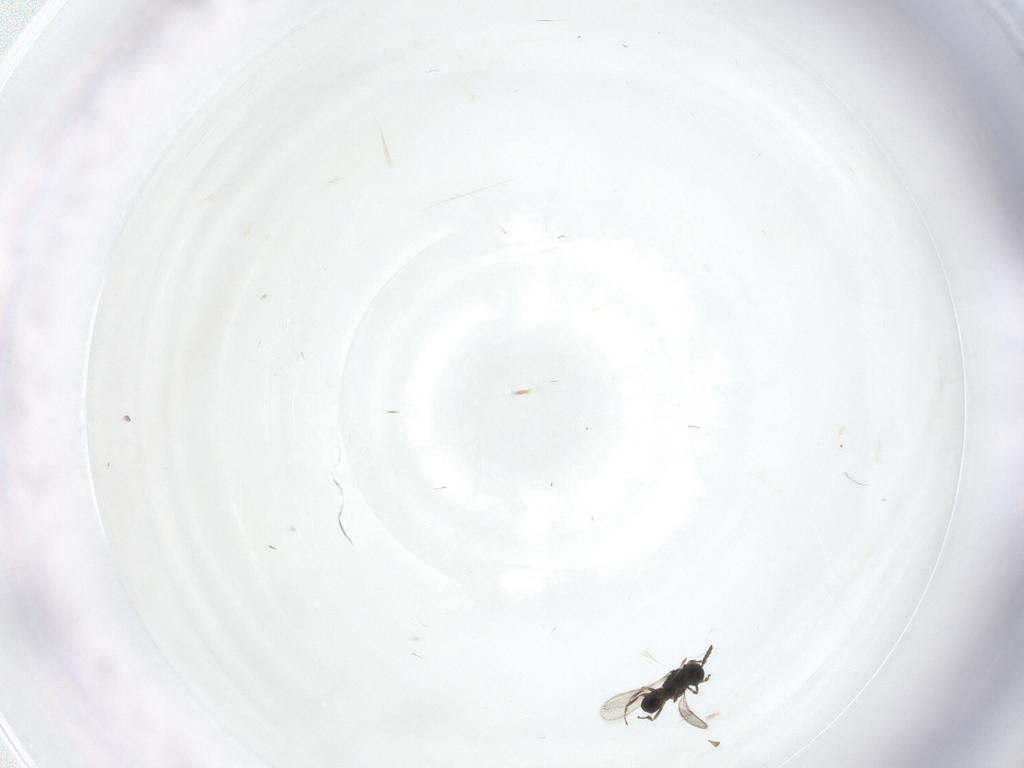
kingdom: Animalia
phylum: Arthropoda
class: Insecta
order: Hymenoptera
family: Scelionidae
